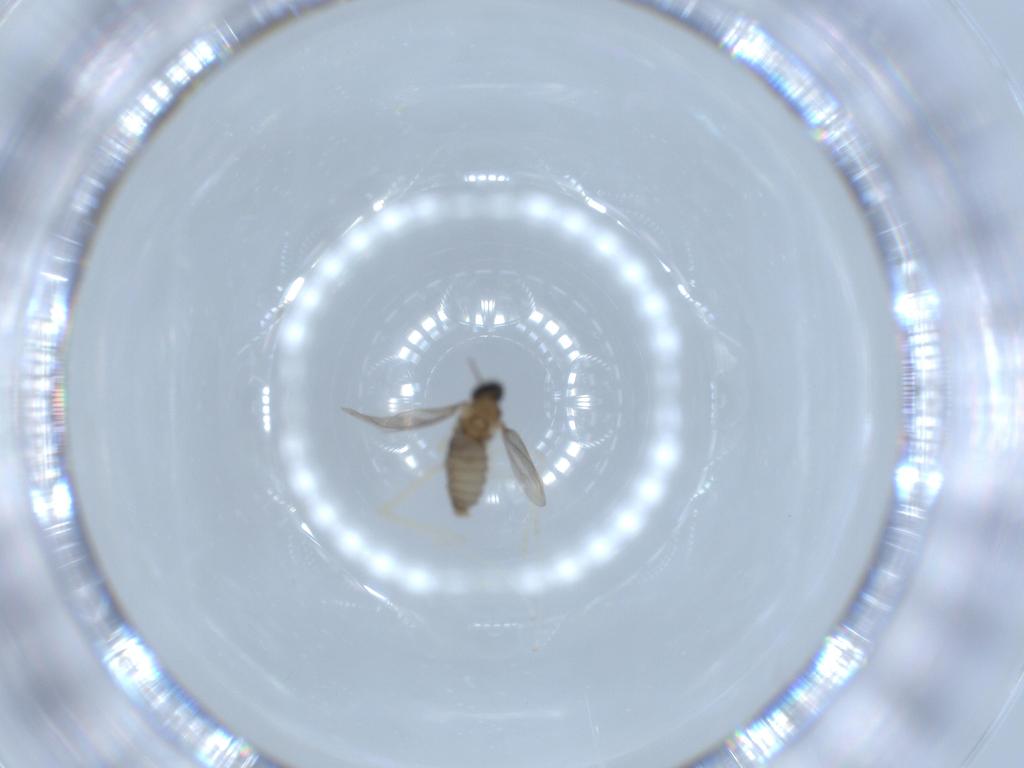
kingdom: Animalia
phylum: Arthropoda
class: Insecta
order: Diptera
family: Cecidomyiidae
